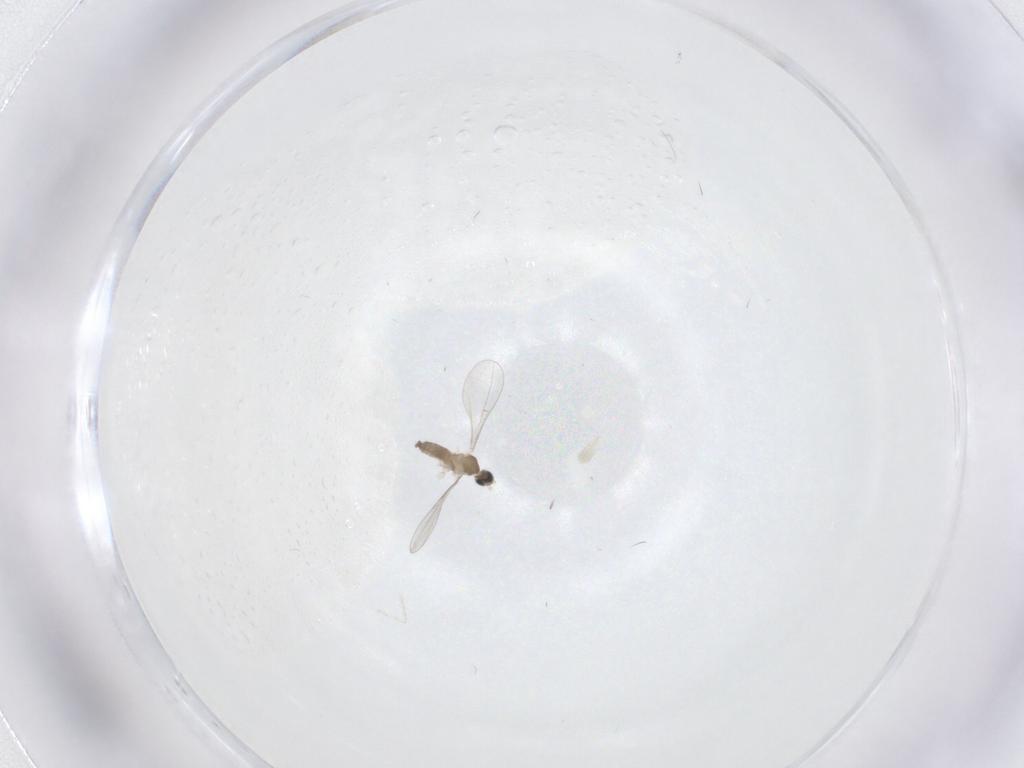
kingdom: Animalia
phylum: Arthropoda
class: Insecta
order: Diptera
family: Cecidomyiidae
